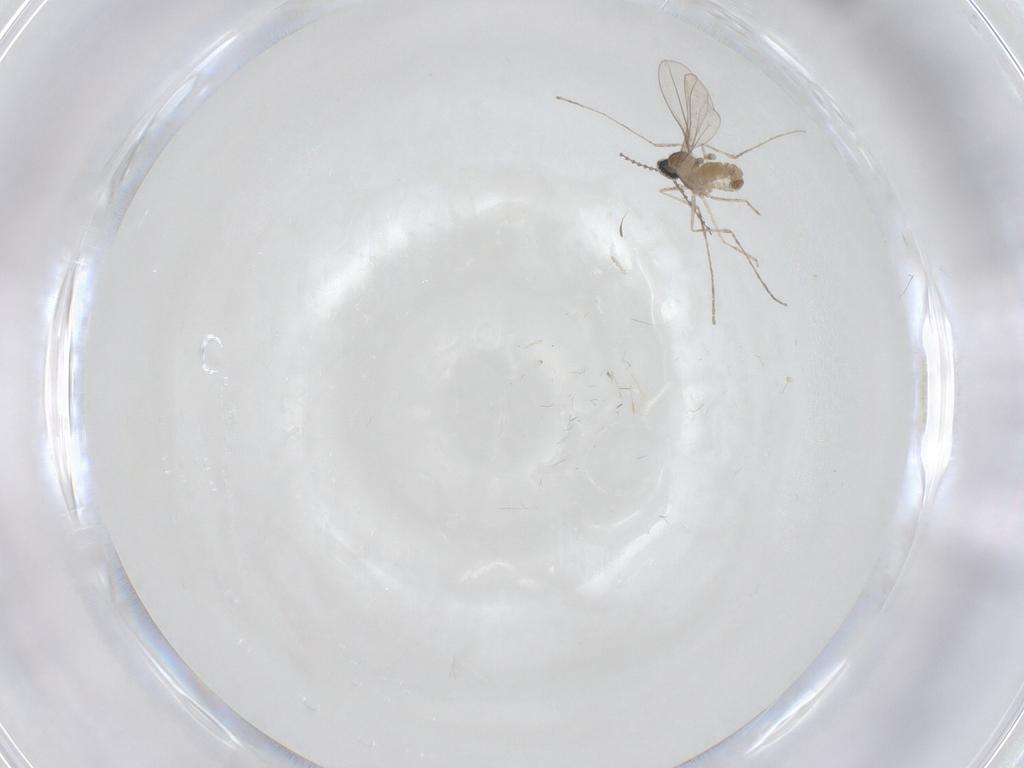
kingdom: Animalia
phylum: Arthropoda
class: Insecta
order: Diptera
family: Cecidomyiidae
